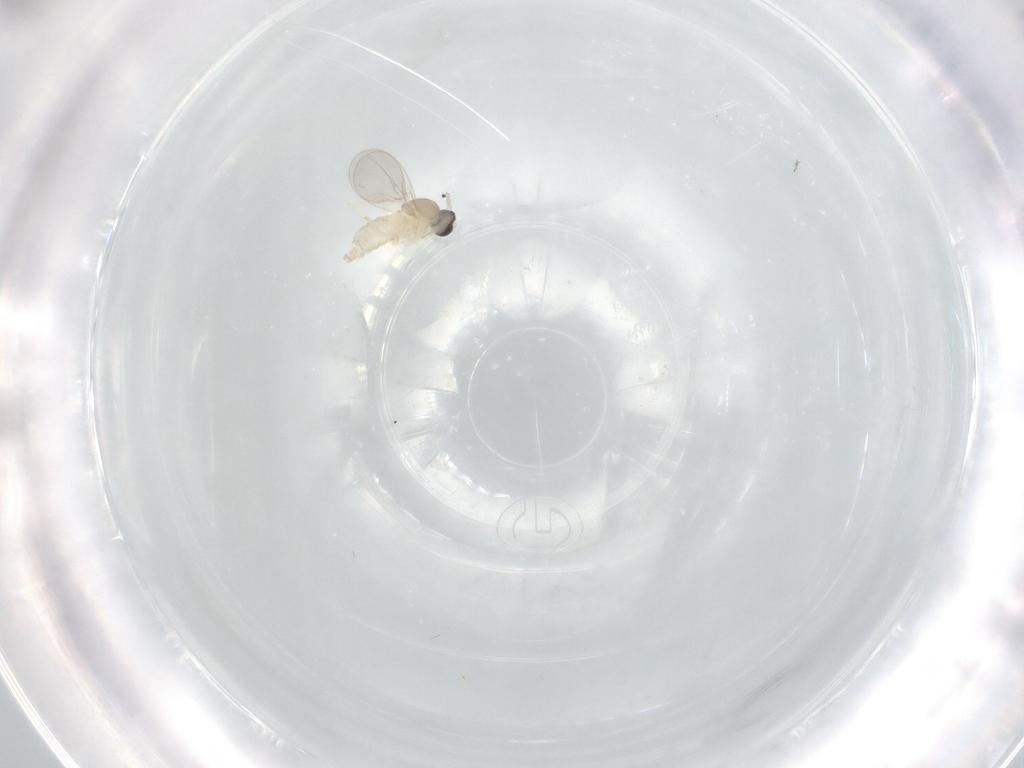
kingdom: Animalia
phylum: Arthropoda
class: Insecta
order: Diptera
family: Cecidomyiidae
